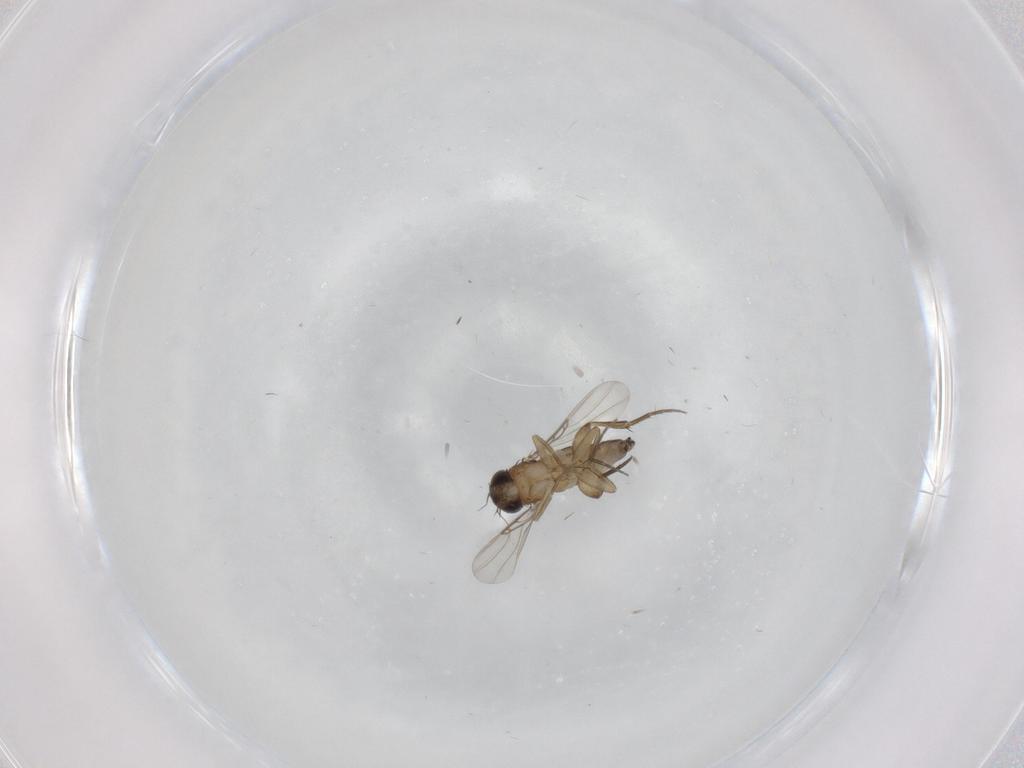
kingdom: Animalia
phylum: Arthropoda
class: Insecta
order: Diptera
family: Phoridae
